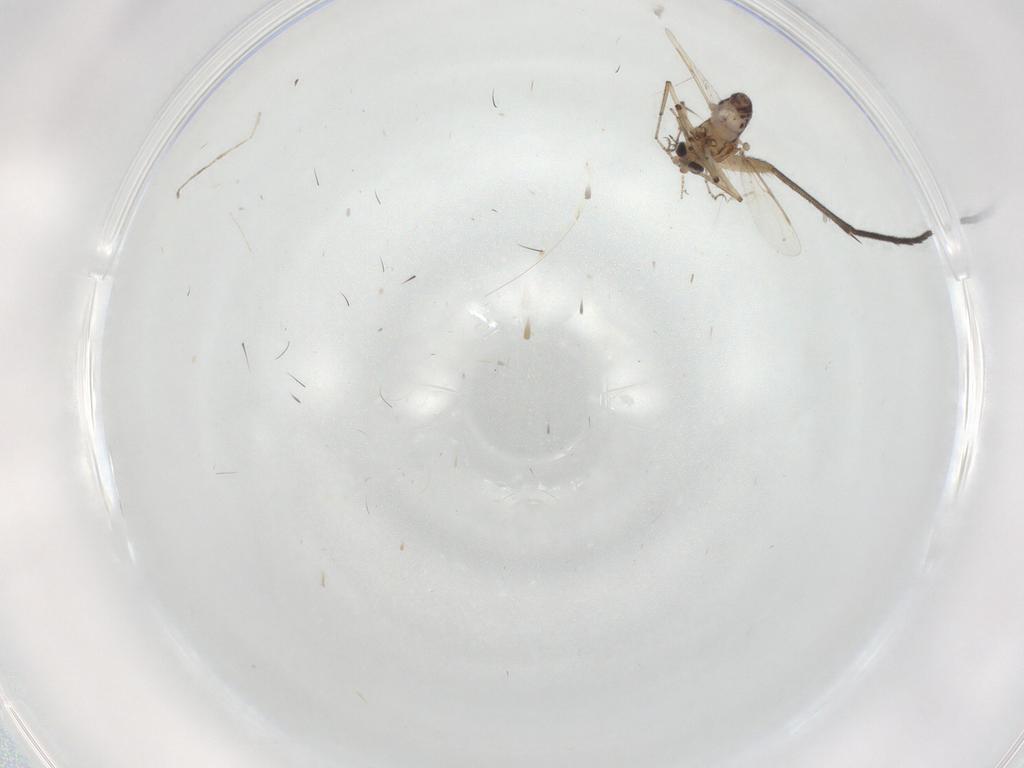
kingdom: Animalia
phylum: Arthropoda
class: Insecta
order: Diptera
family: Sciaridae
